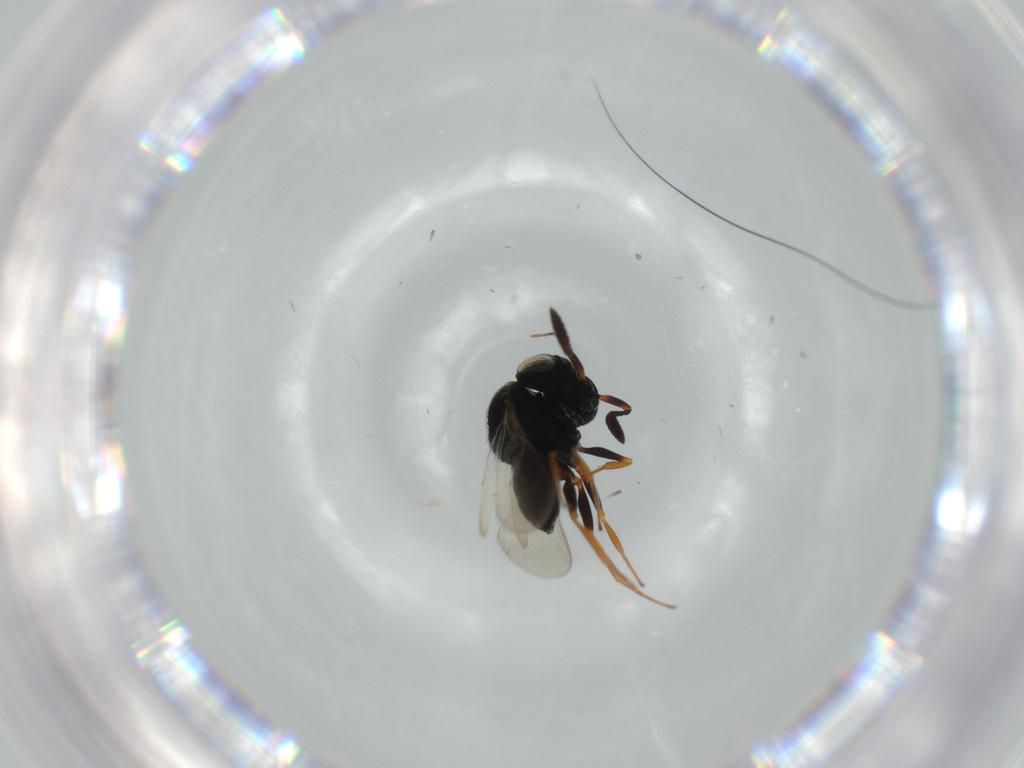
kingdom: Animalia
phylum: Arthropoda
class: Insecta
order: Hymenoptera
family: Scelionidae
